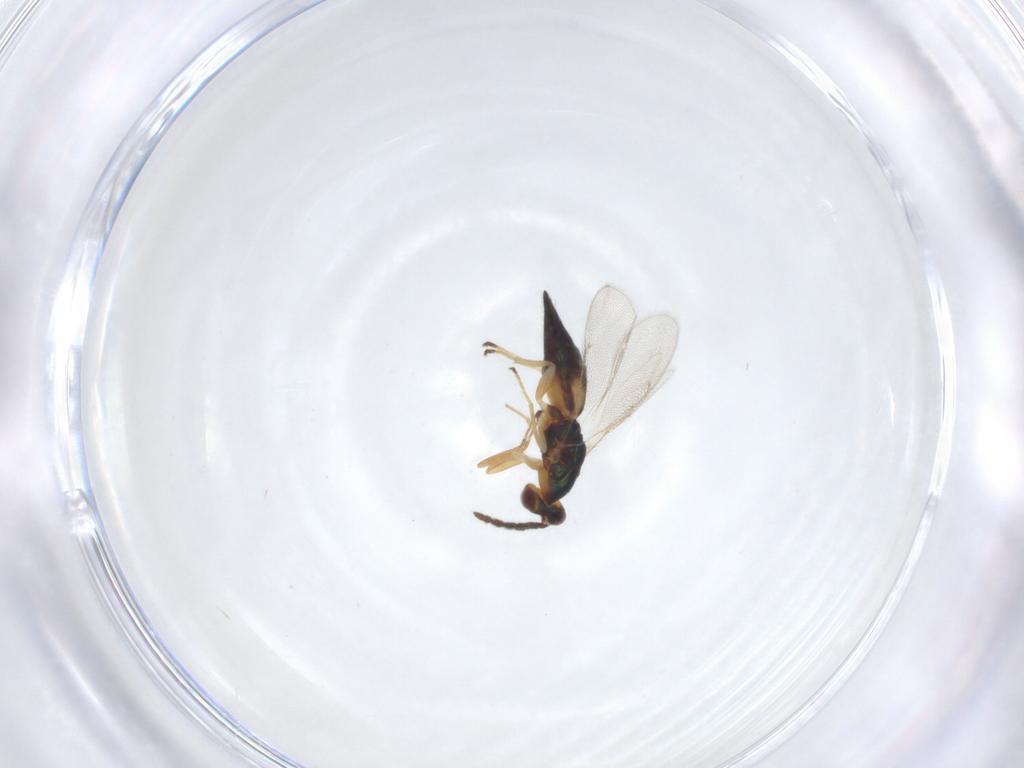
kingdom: Animalia
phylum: Arthropoda
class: Insecta
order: Hymenoptera
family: Eulophidae
